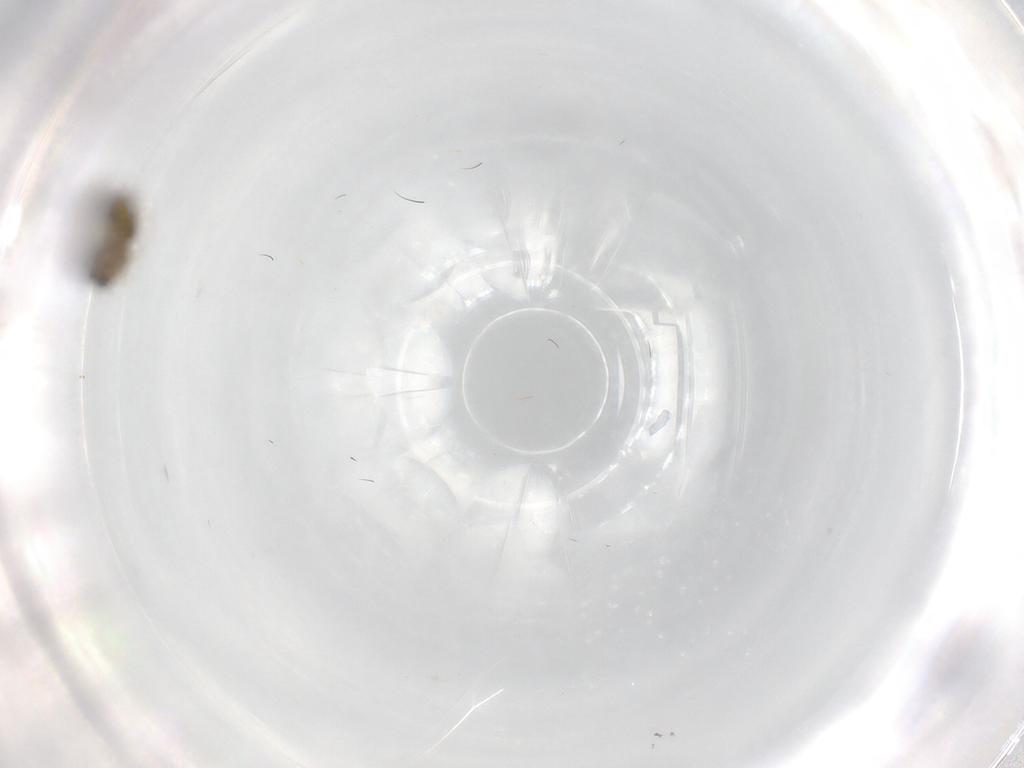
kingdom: Animalia
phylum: Arthropoda
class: Insecta
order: Diptera
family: Ceratopogonidae
